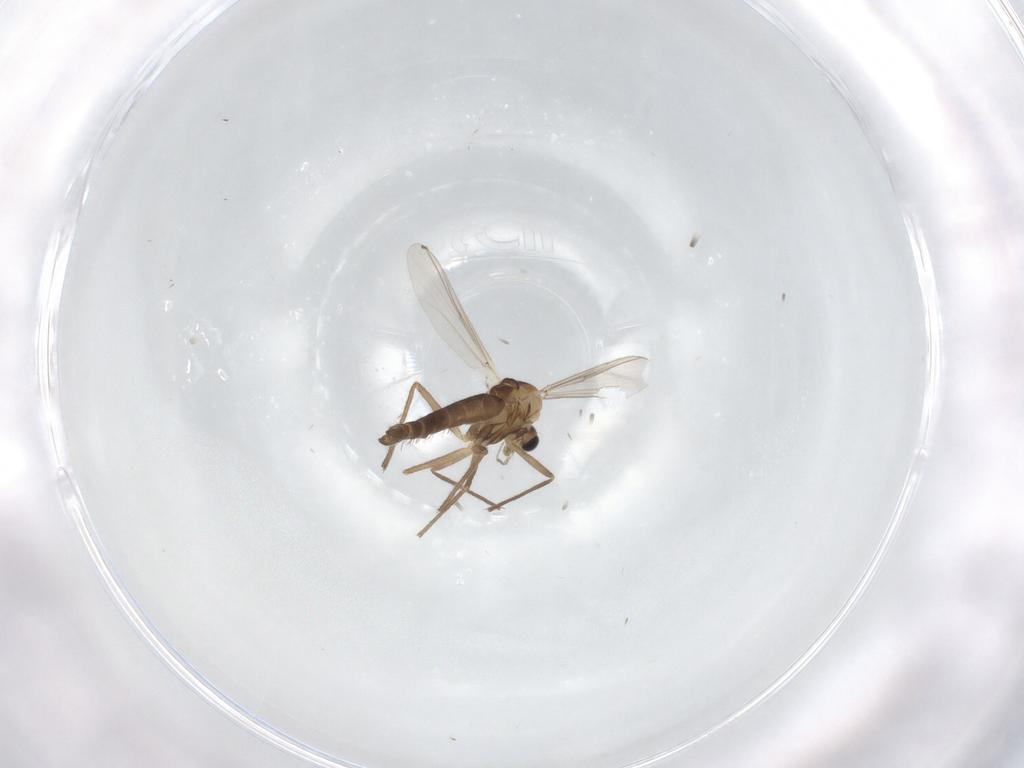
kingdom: Animalia
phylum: Arthropoda
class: Insecta
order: Diptera
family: Chironomidae
